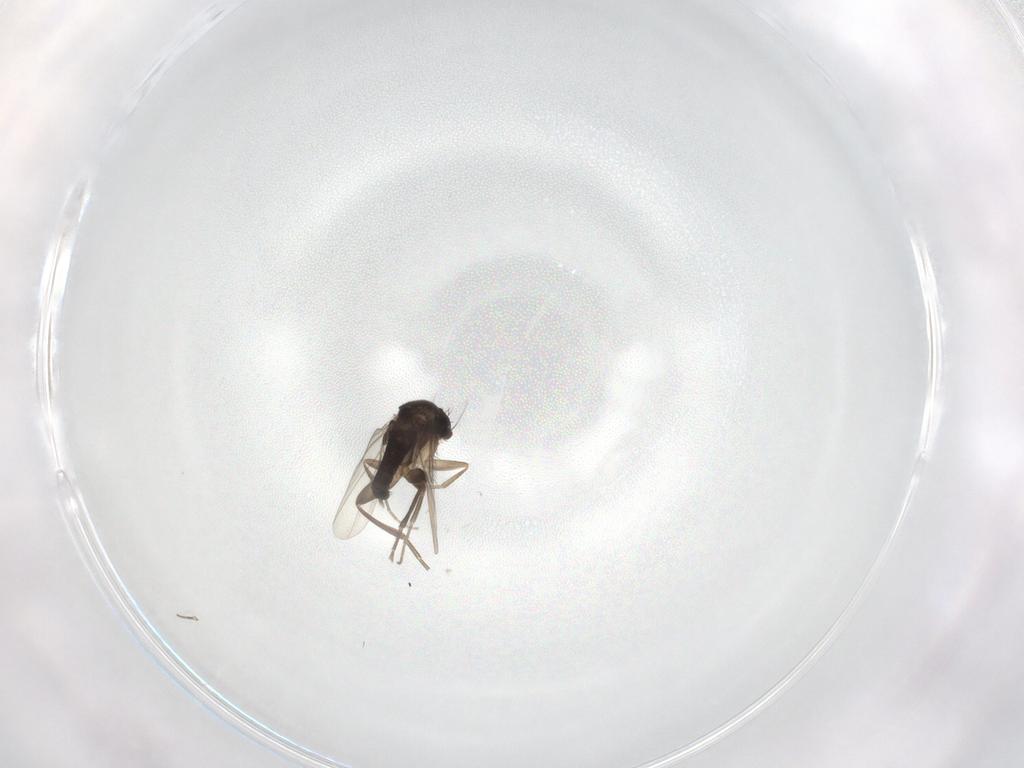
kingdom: Animalia
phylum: Arthropoda
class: Insecta
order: Diptera
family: Phoridae
